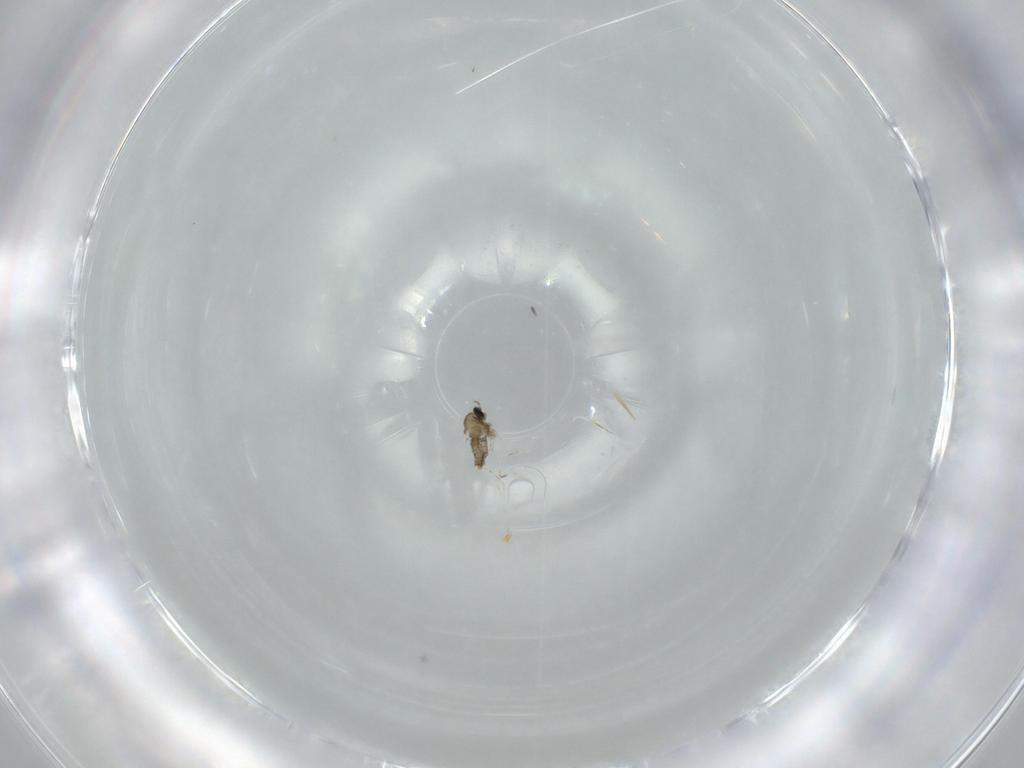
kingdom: Animalia
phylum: Arthropoda
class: Insecta
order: Diptera
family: Cecidomyiidae
